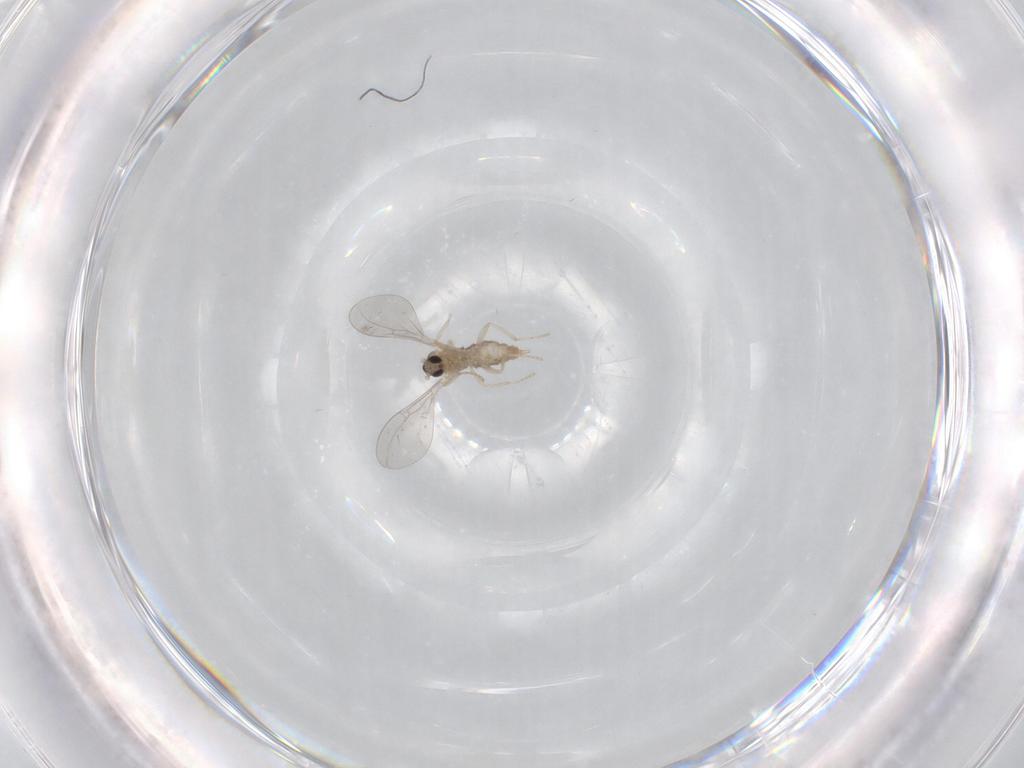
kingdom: Animalia
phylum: Arthropoda
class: Insecta
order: Diptera
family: Cecidomyiidae
